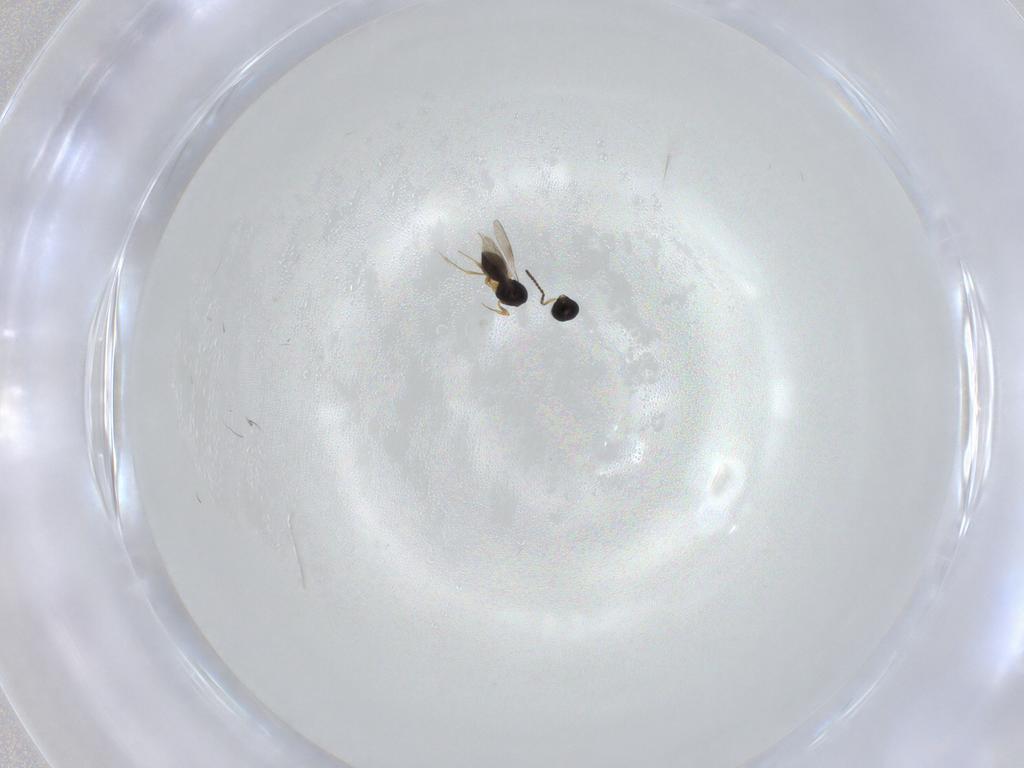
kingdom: Animalia
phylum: Arthropoda
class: Insecta
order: Hymenoptera
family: Scelionidae
